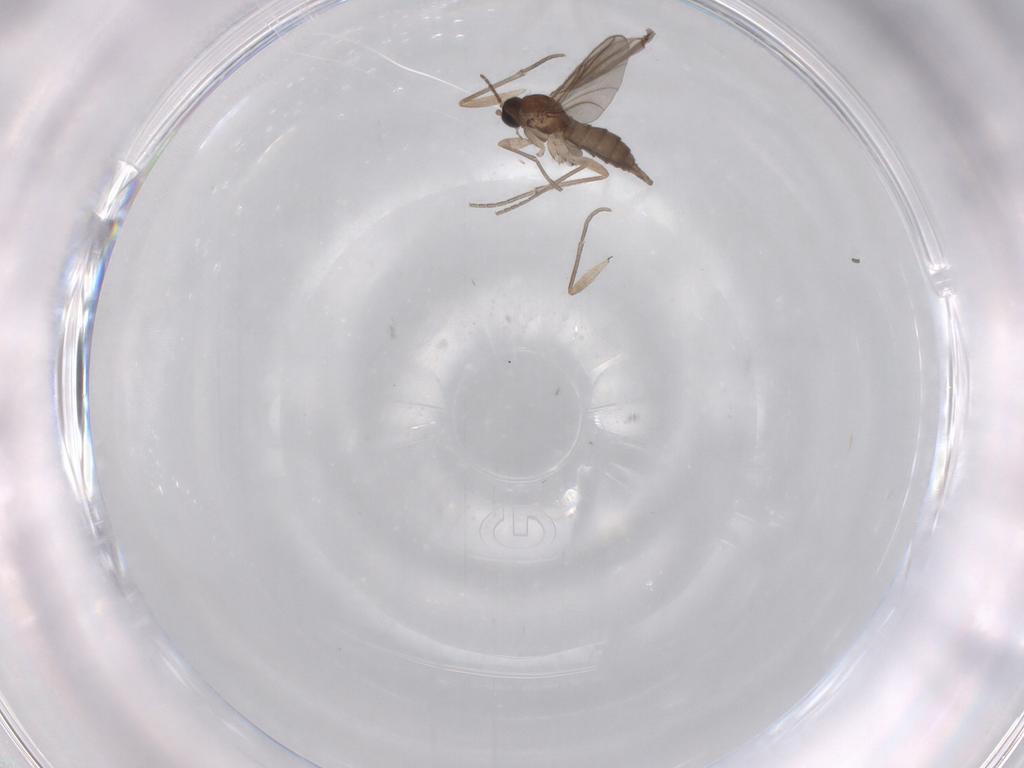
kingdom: Animalia
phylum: Arthropoda
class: Insecta
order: Diptera
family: Sciaridae
